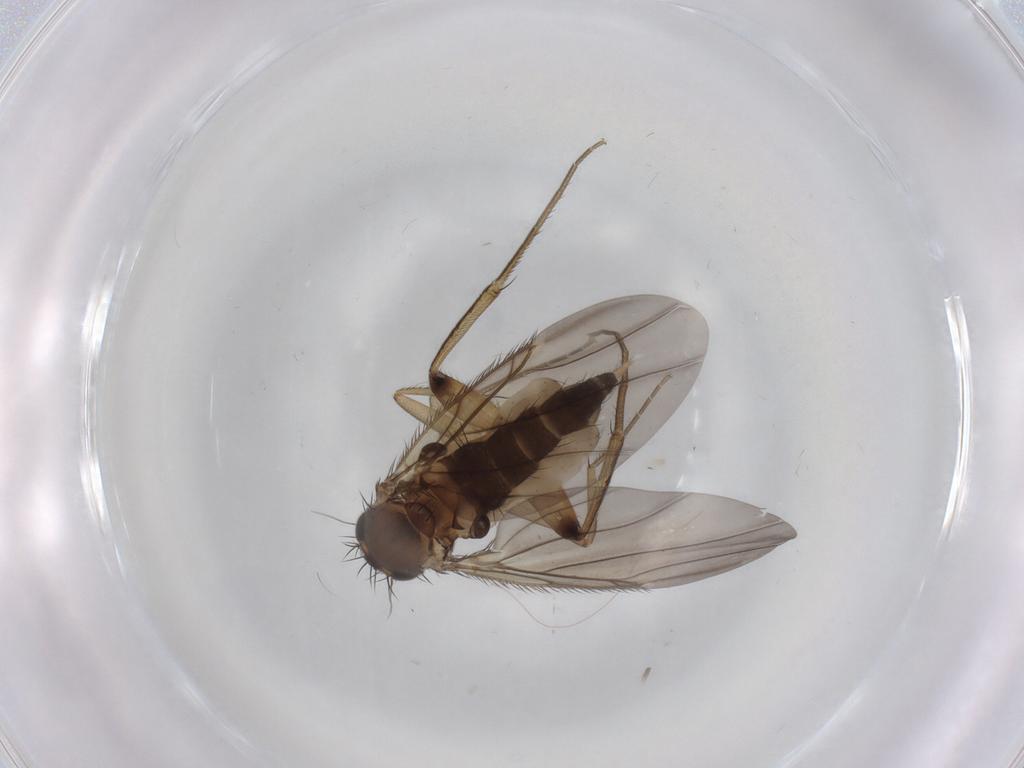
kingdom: Animalia
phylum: Arthropoda
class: Insecta
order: Diptera
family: Phoridae
